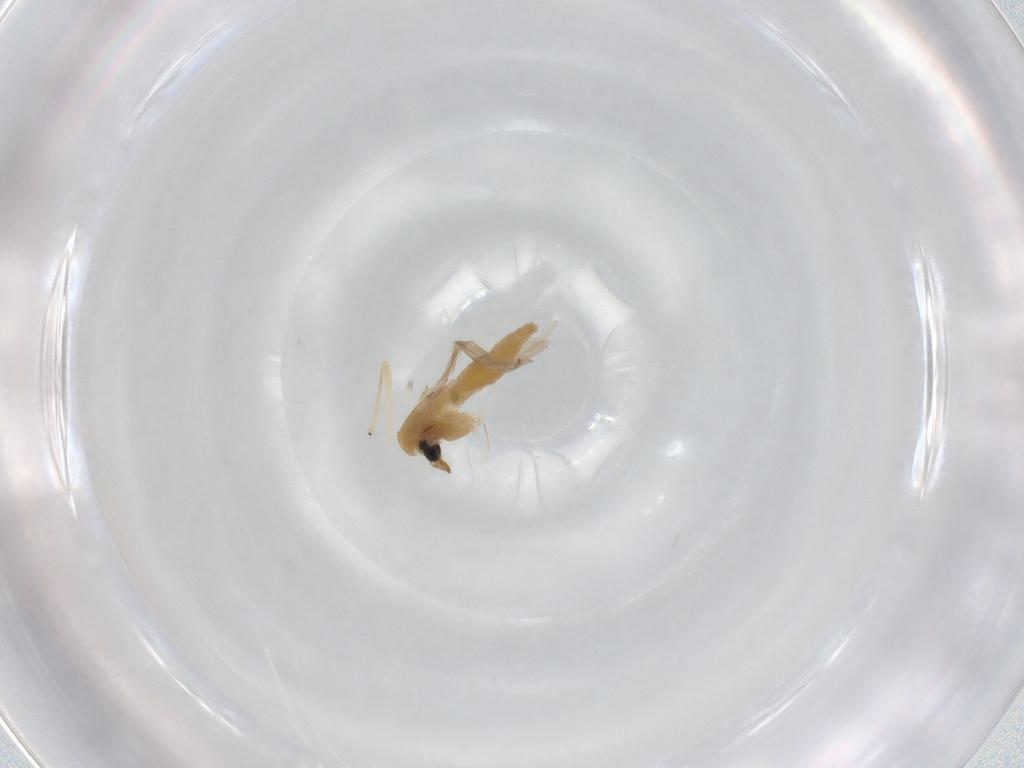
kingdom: Animalia
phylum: Arthropoda
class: Insecta
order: Diptera
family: Chironomidae
